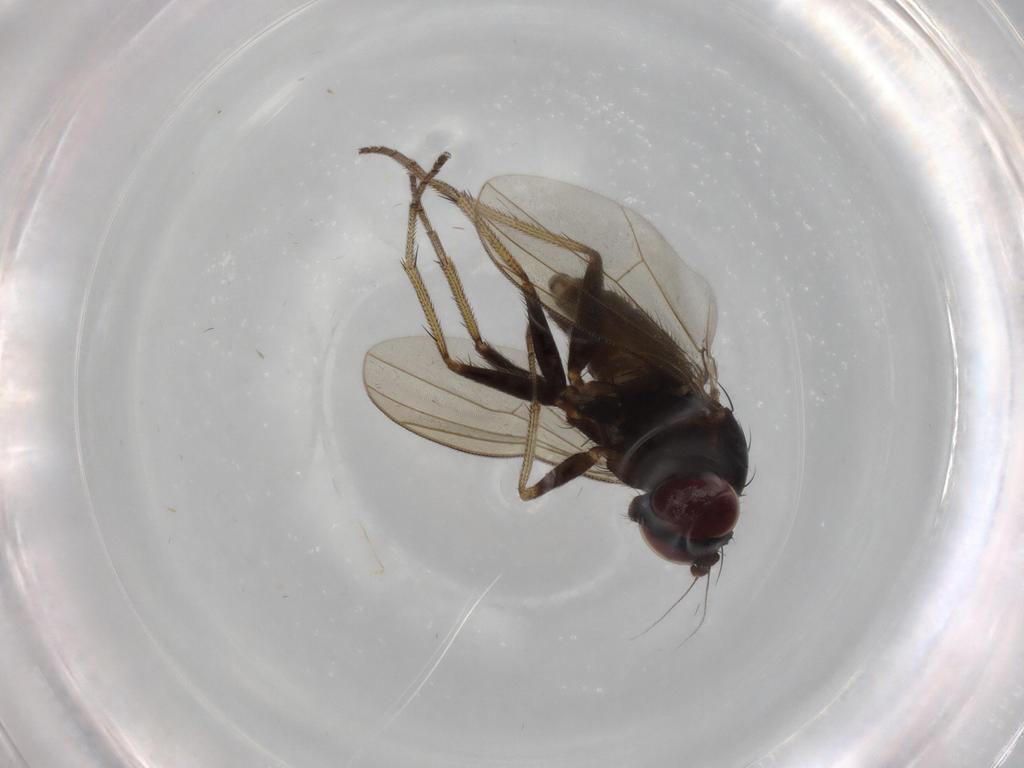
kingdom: Animalia
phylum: Arthropoda
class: Insecta
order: Diptera
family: Dolichopodidae
